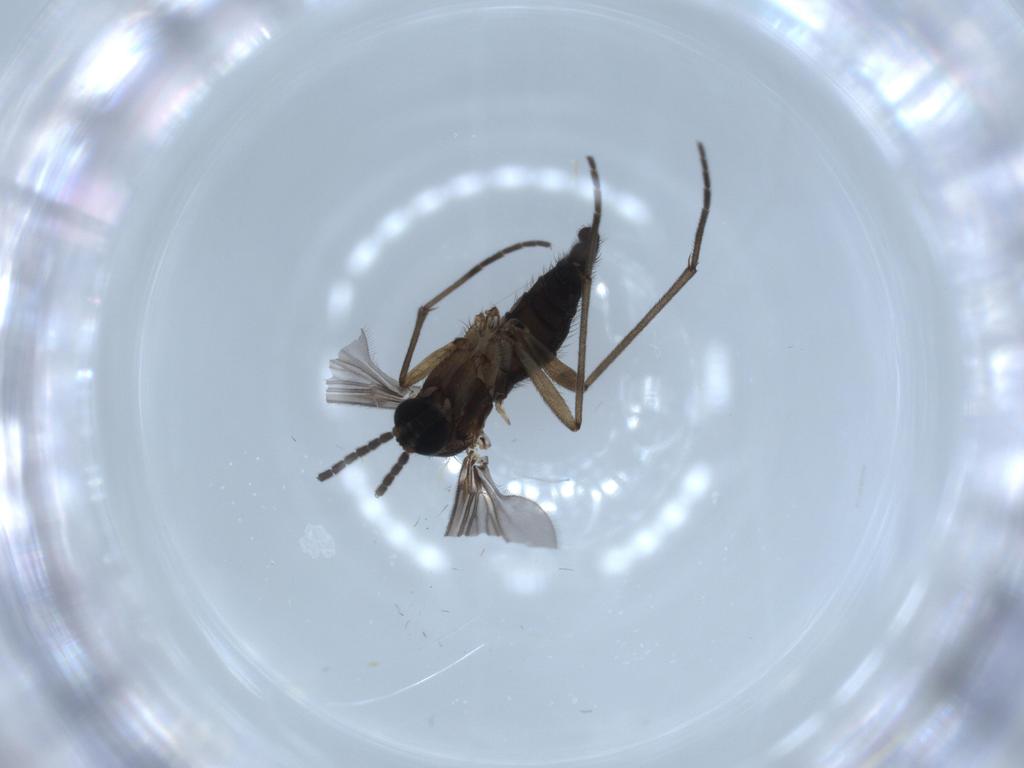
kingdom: Animalia
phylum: Arthropoda
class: Insecta
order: Diptera
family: Sciaridae
